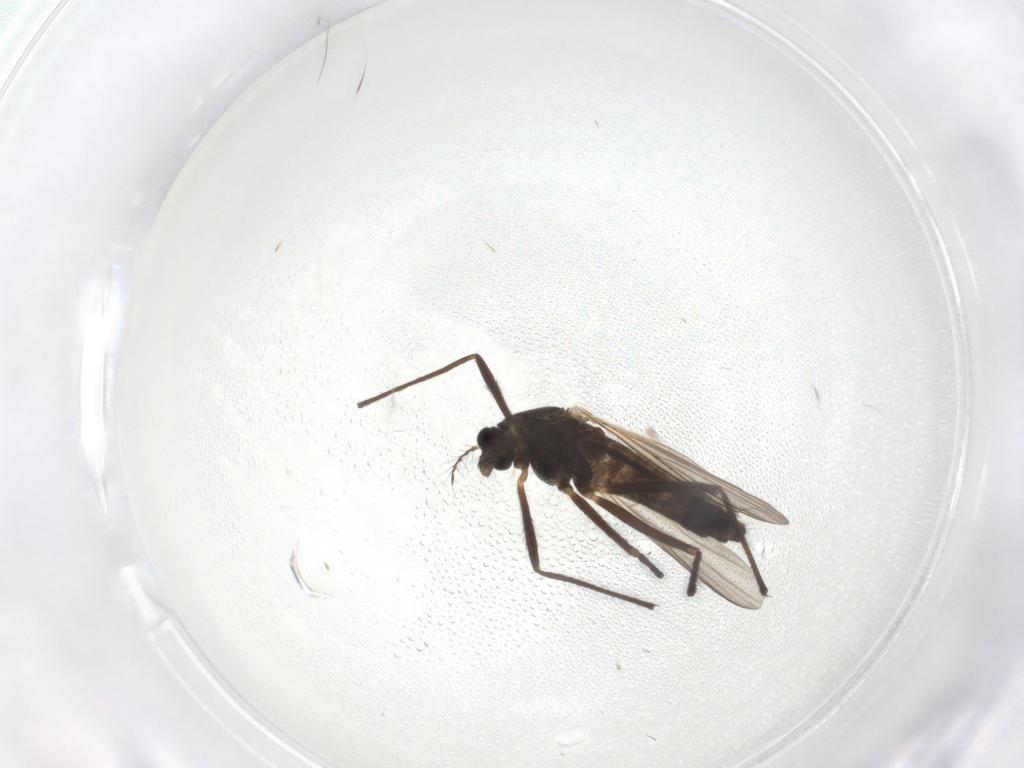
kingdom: Animalia
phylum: Arthropoda
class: Insecta
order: Diptera
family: Chironomidae
